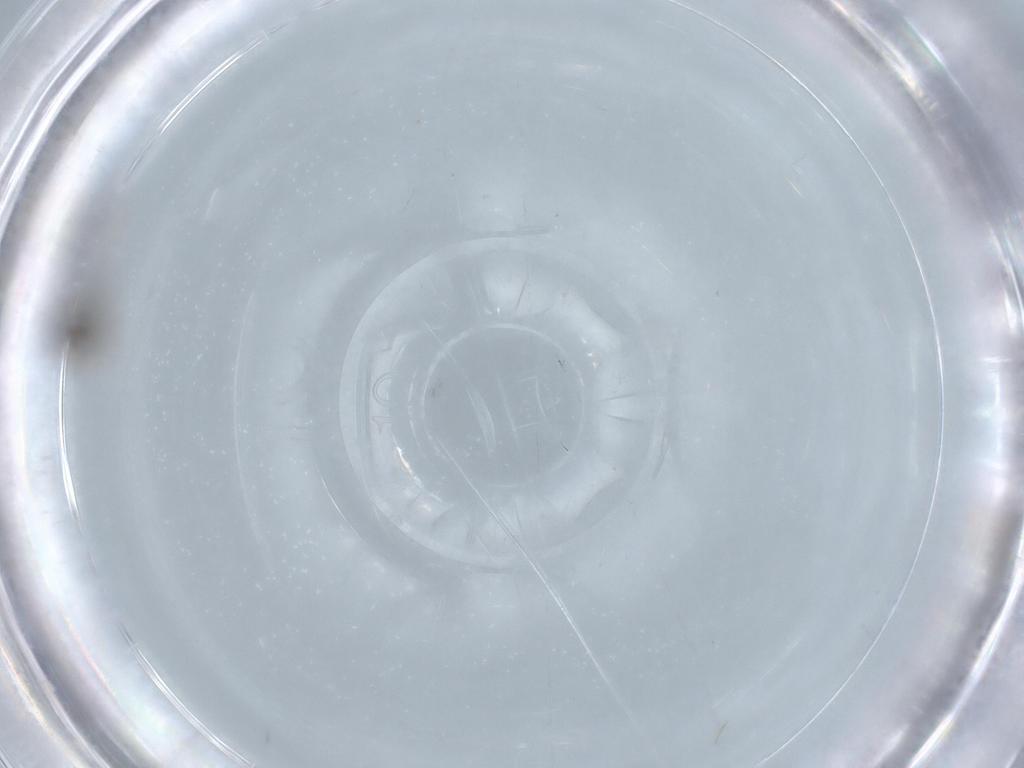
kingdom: Animalia
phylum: Arthropoda
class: Insecta
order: Diptera
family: Chironomidae
